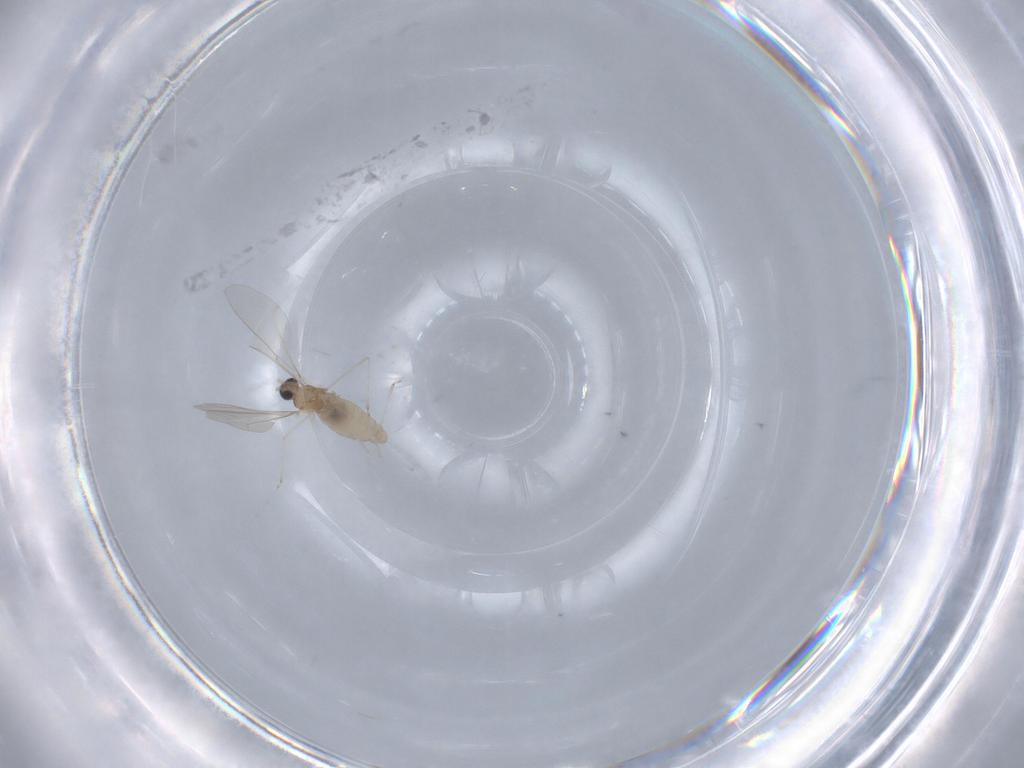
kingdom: Animalia
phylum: Arthropoda
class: Insecta
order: Diptera
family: Cecidomyiidae
